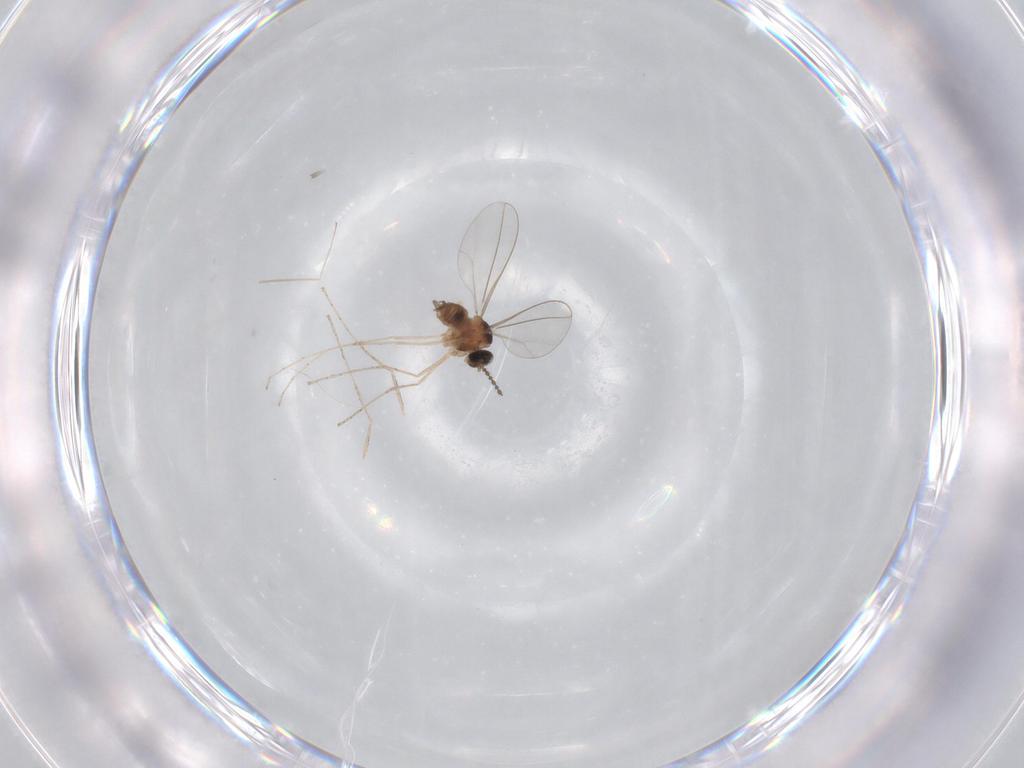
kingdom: Animalia
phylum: Arthropoda
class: Insecta
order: Diptera
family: Cecidomyiidae
